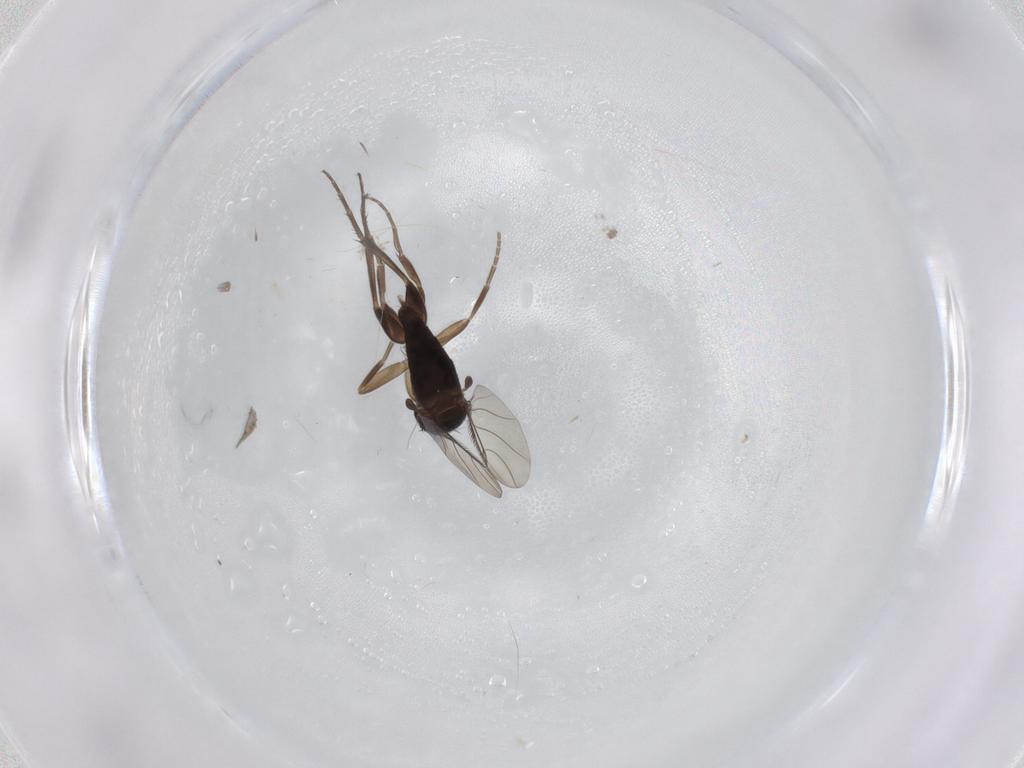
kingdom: Animalia
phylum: Arthropoda
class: Insecta
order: Diptera
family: Phoridae
